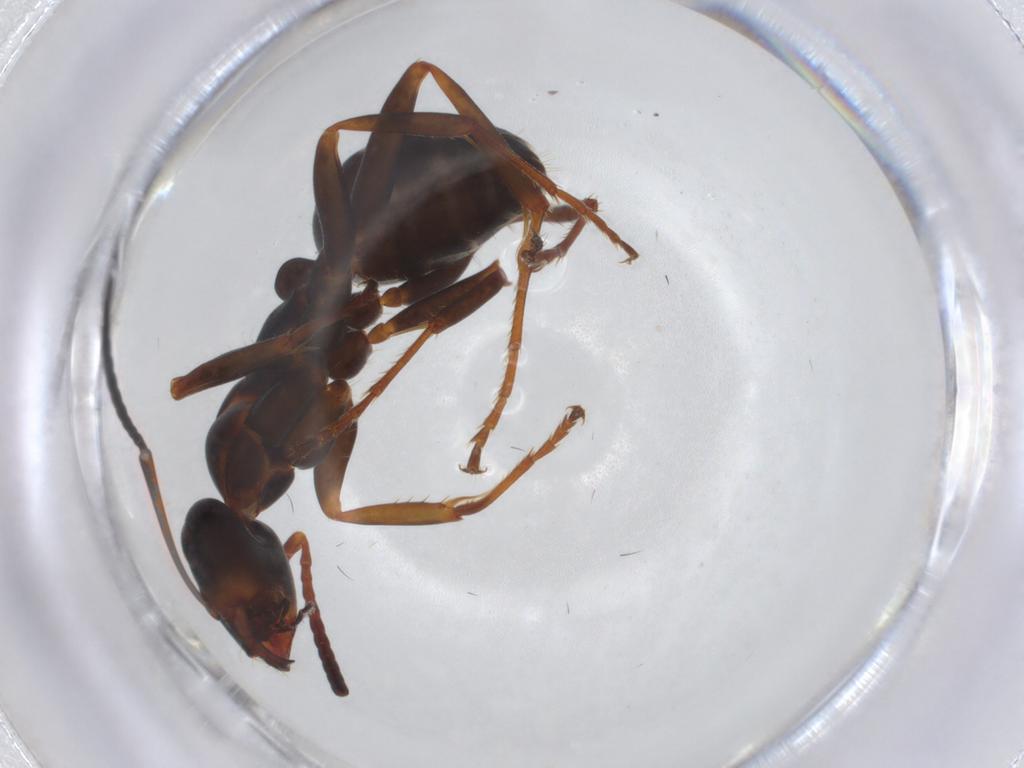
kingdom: Animalia
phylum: Arthropoda
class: Insecta
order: Hymenoptera
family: Formicidae
